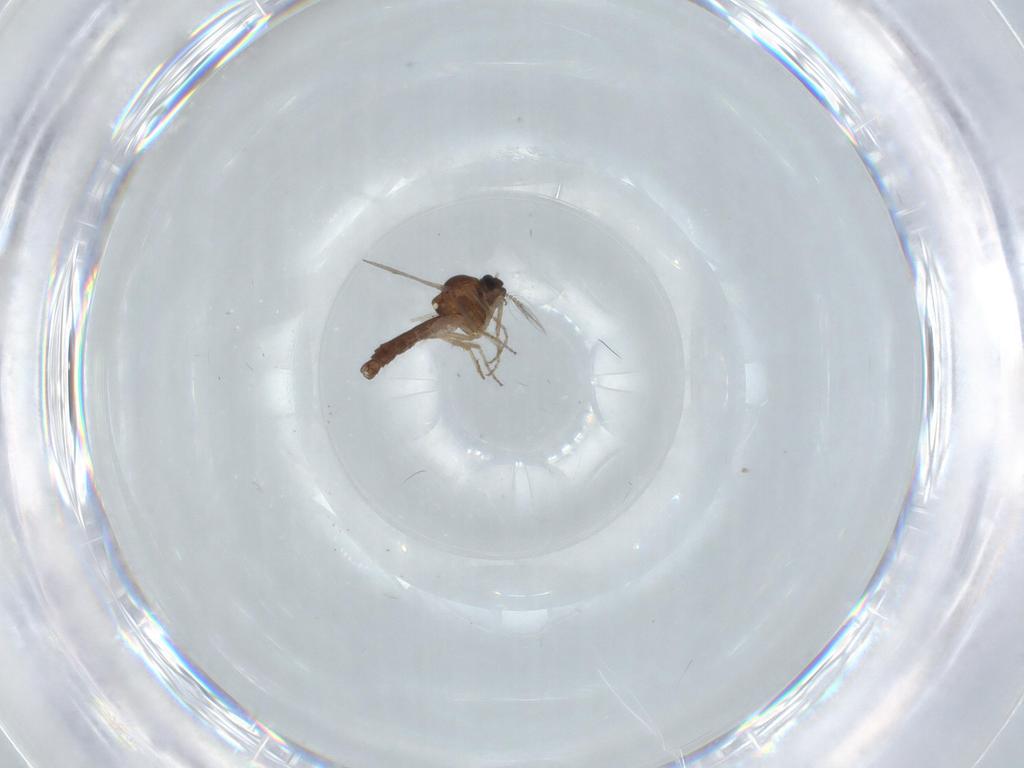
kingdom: Animalia
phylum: Arthropoda
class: Insecta
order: Diptera
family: Ceratopogonidae
